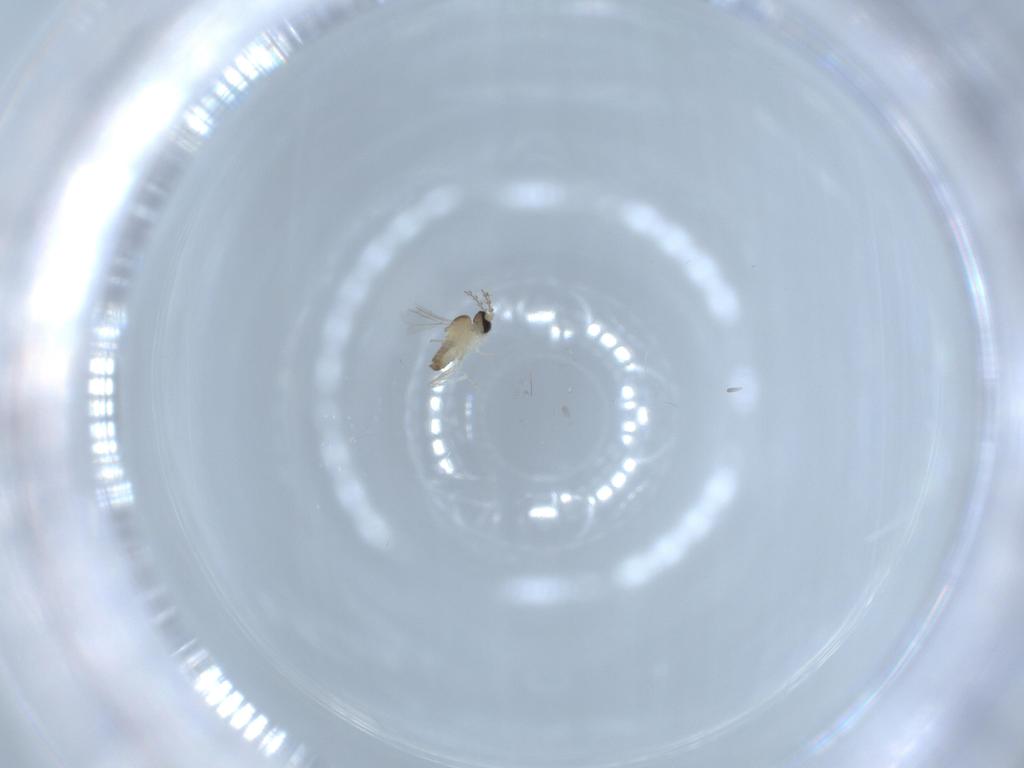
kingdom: Animalia
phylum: Arthropoda
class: Insecta
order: Diptera
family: Cecidomyiidae
